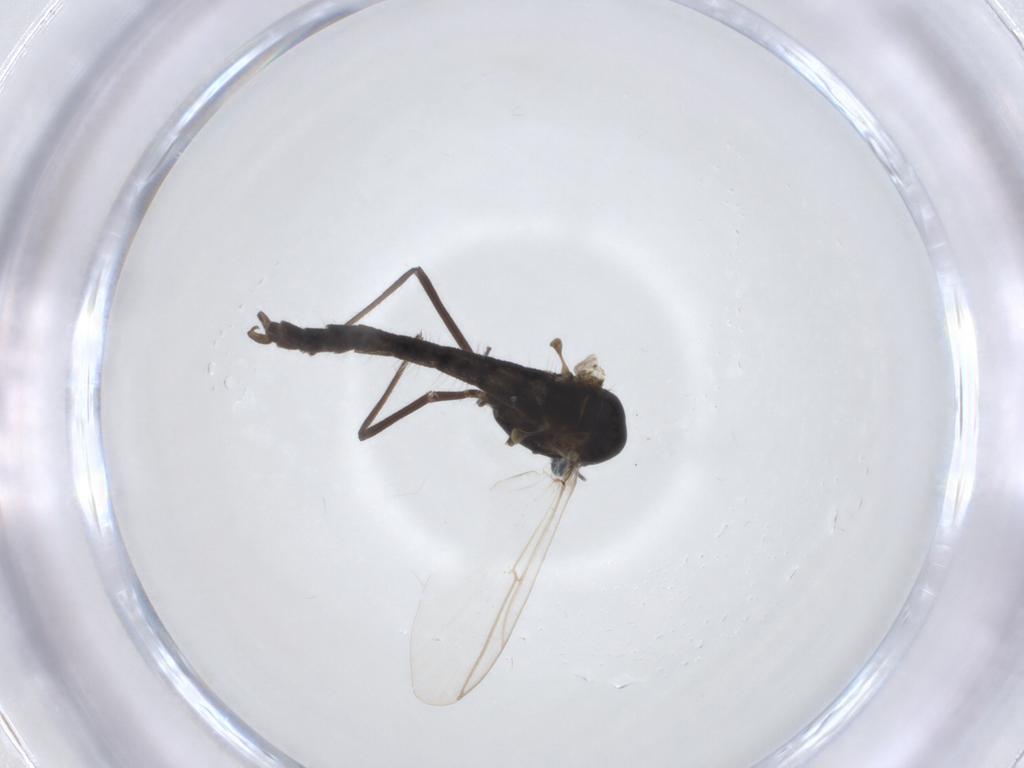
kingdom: Animalia
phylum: Arthropoda
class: Insecta
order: Diptera
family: Chironomidae
